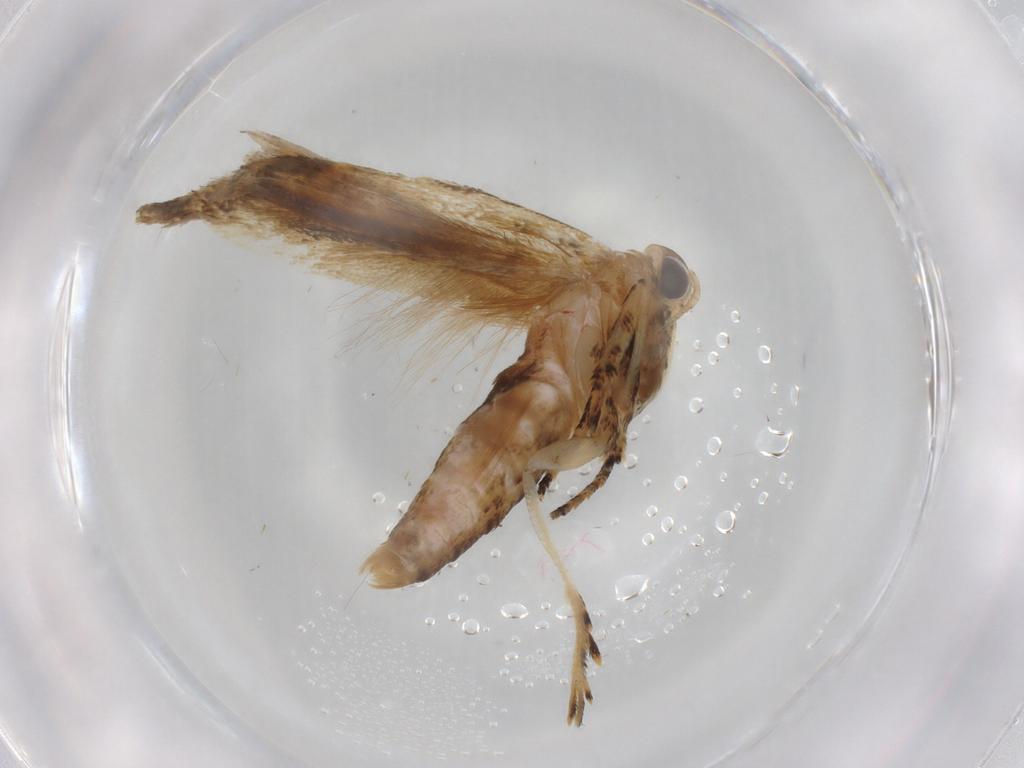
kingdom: Animalia
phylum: Arthropoda
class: Insecta
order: Lepidoptera
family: Gelechiidae
